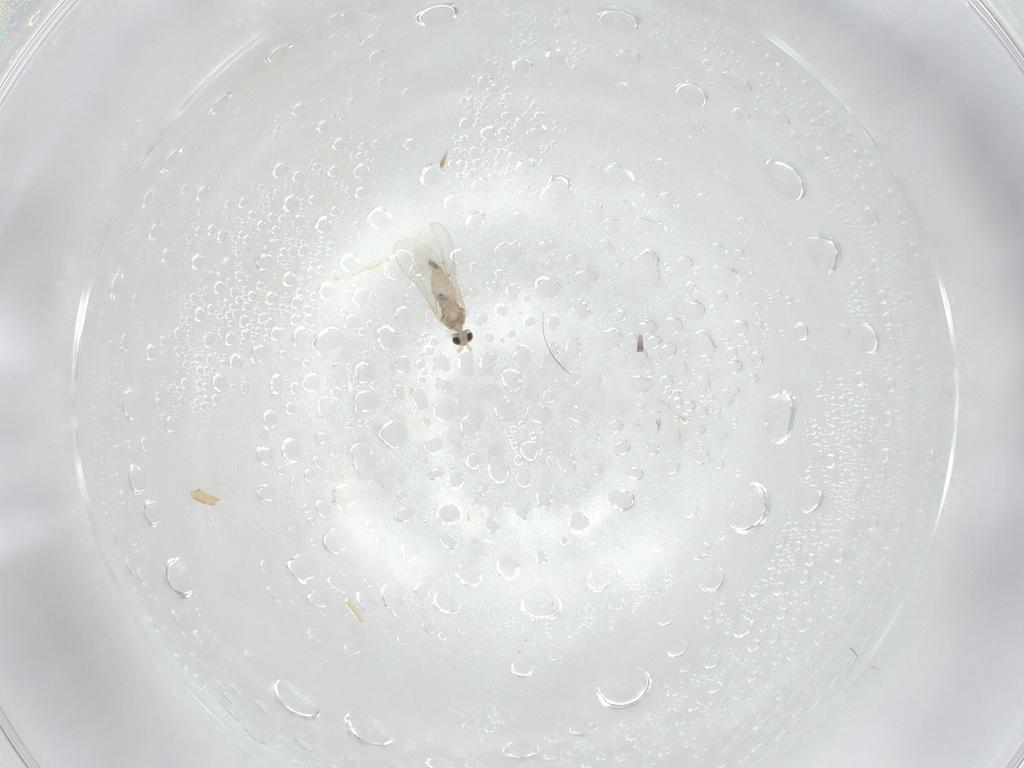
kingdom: Animalia
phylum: Arthropoda
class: Insecta
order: Diptera
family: Cecidomyiidae
